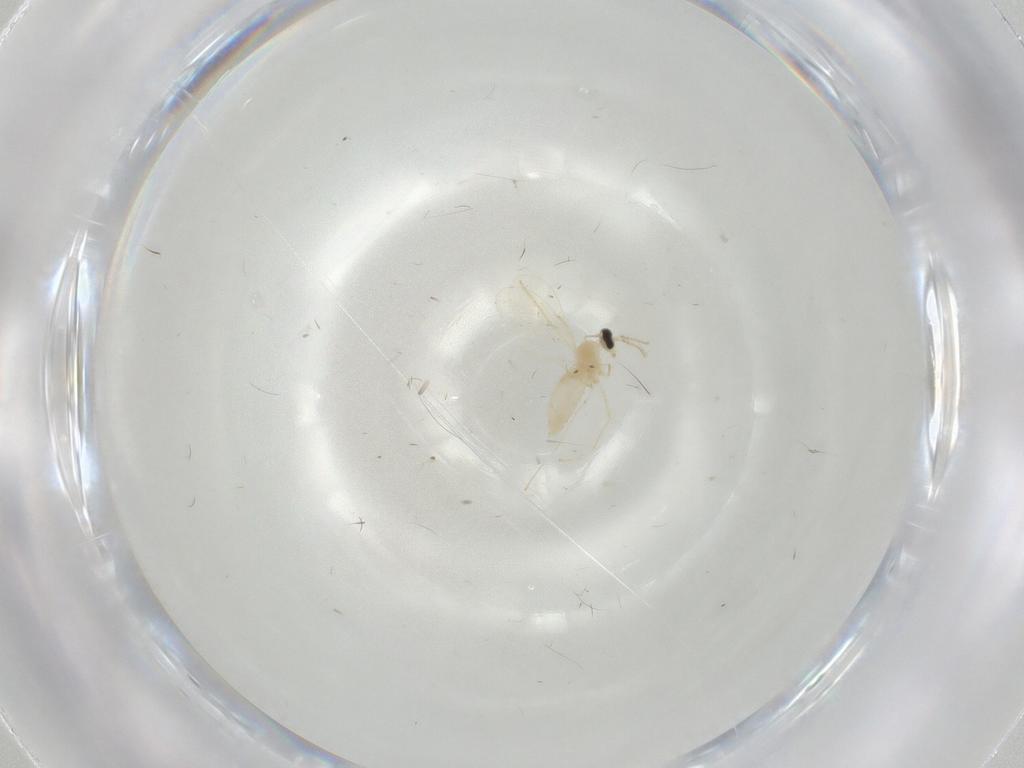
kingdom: Animalia
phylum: Arthropoda
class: Insecta
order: Diptera
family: Cecidomyiidae
